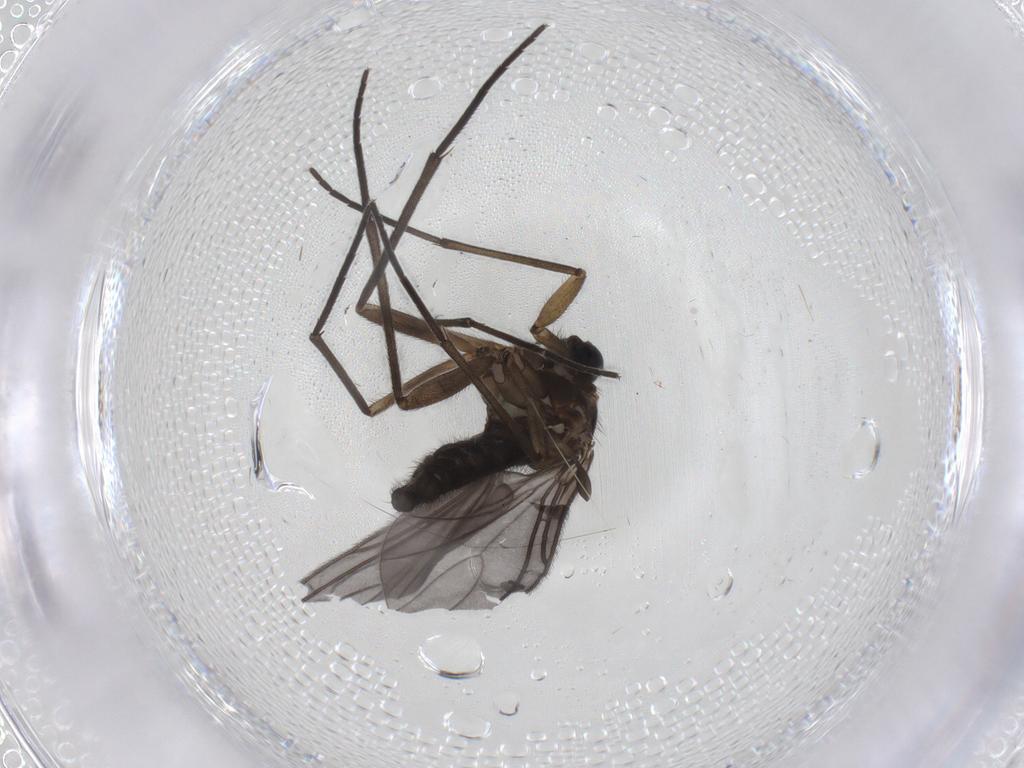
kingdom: Animalia
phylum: Arthropoda
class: Insecta
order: Diptera
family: Sciaridae
